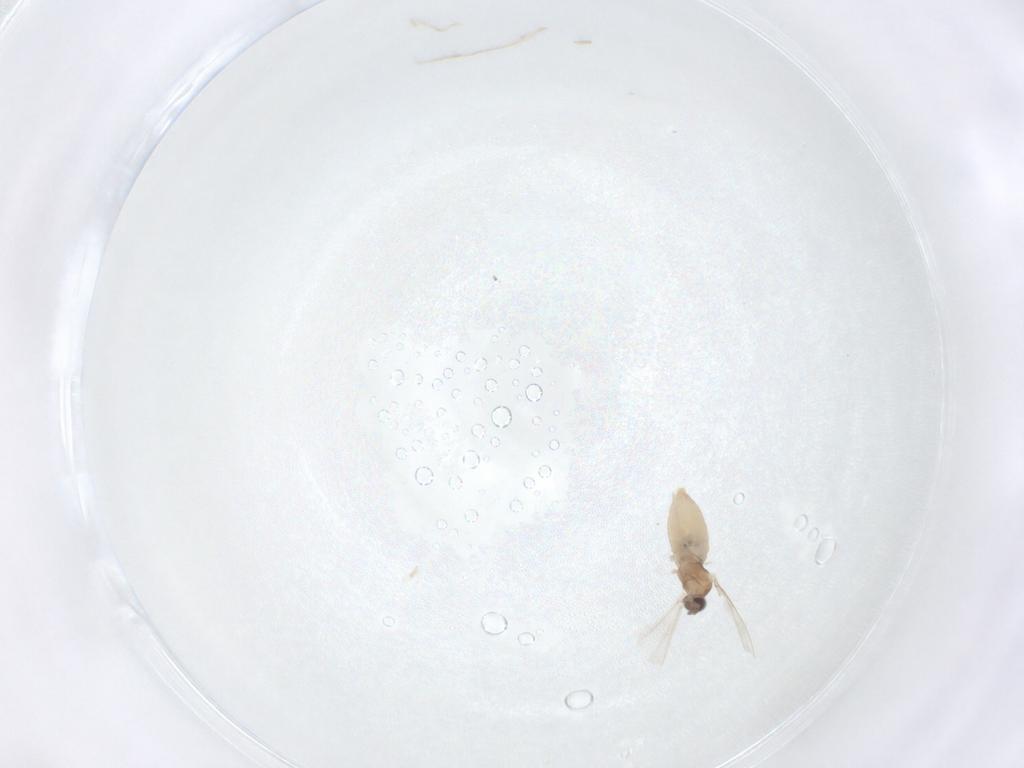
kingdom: Animalia
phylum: Arthropoda
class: Insecta
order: Diptera
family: Cecidomyiidae
